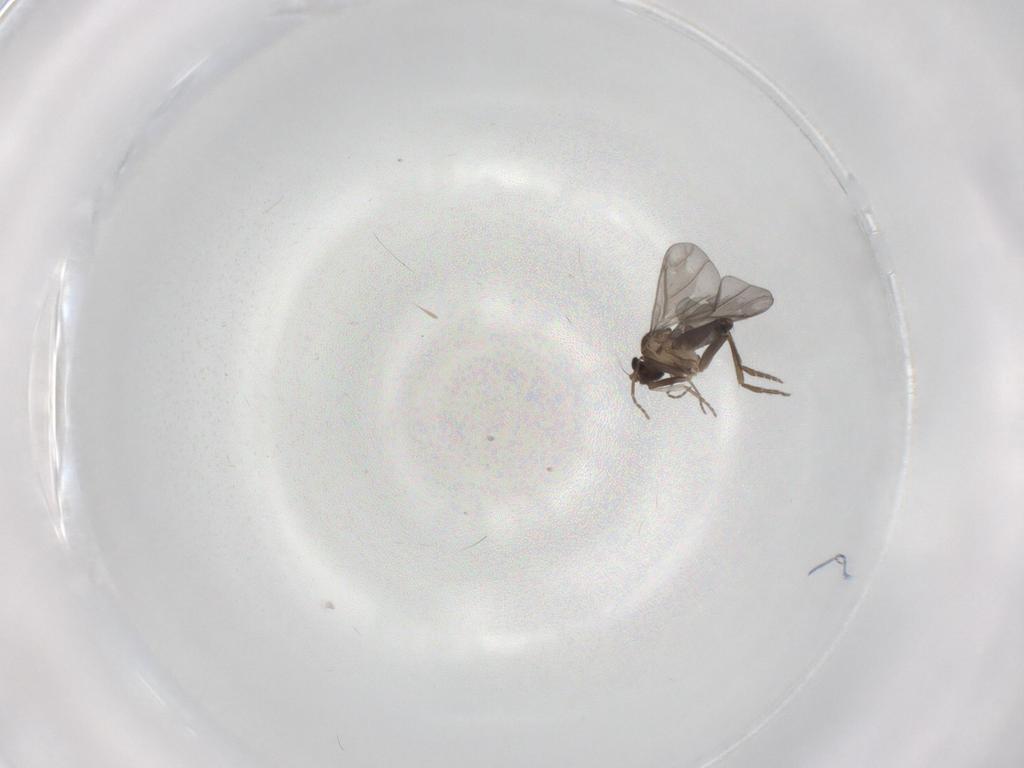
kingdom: Animalia
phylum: Arthropoda
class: Insecta
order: Diptera
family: Phoridae
